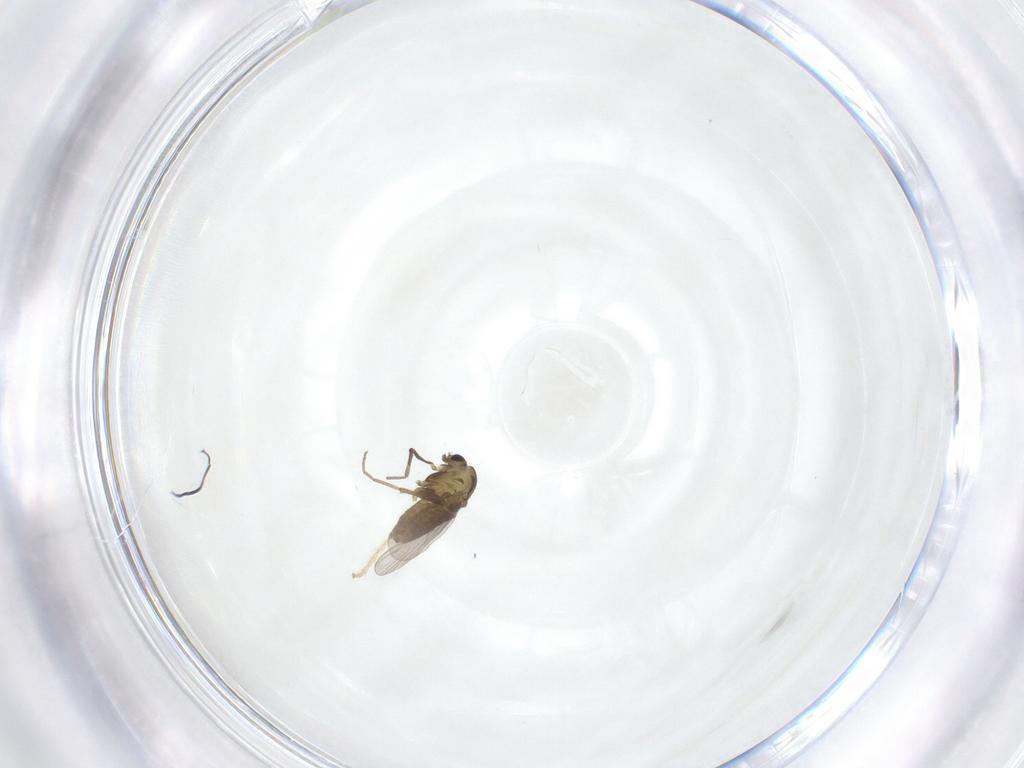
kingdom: Animalia
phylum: Arthropoda
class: Insecta
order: Diptera
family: Chironomidae
